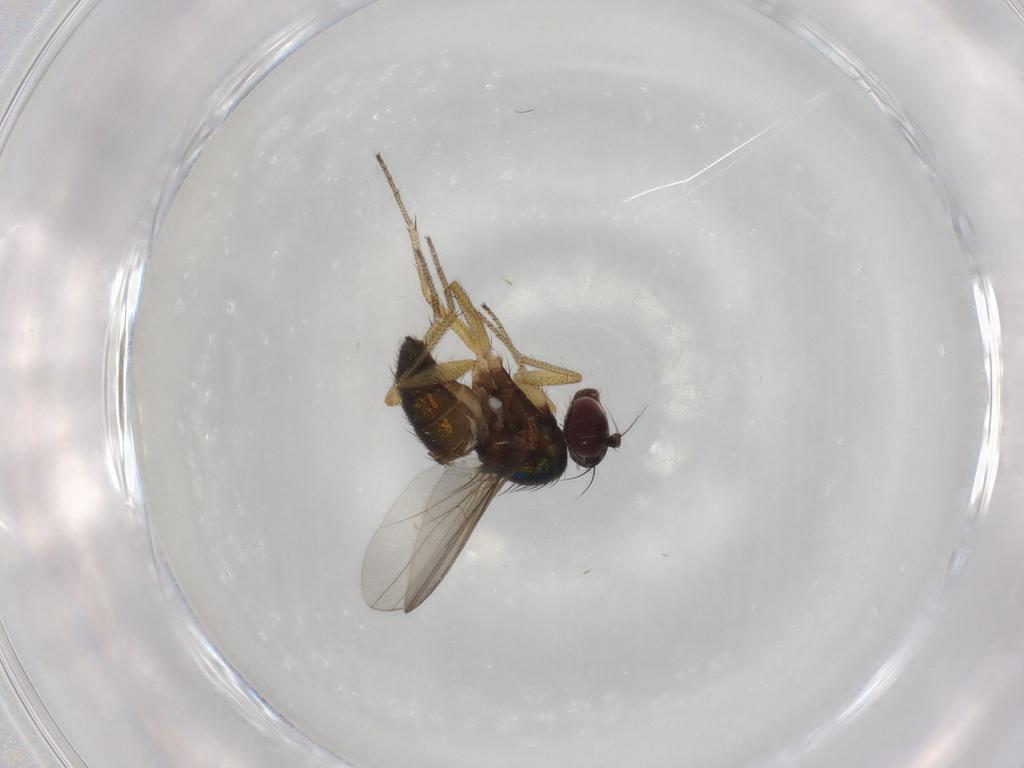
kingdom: Animalia
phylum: Arthropoda
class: Insecta
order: Diptera
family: Dolichopodidae
